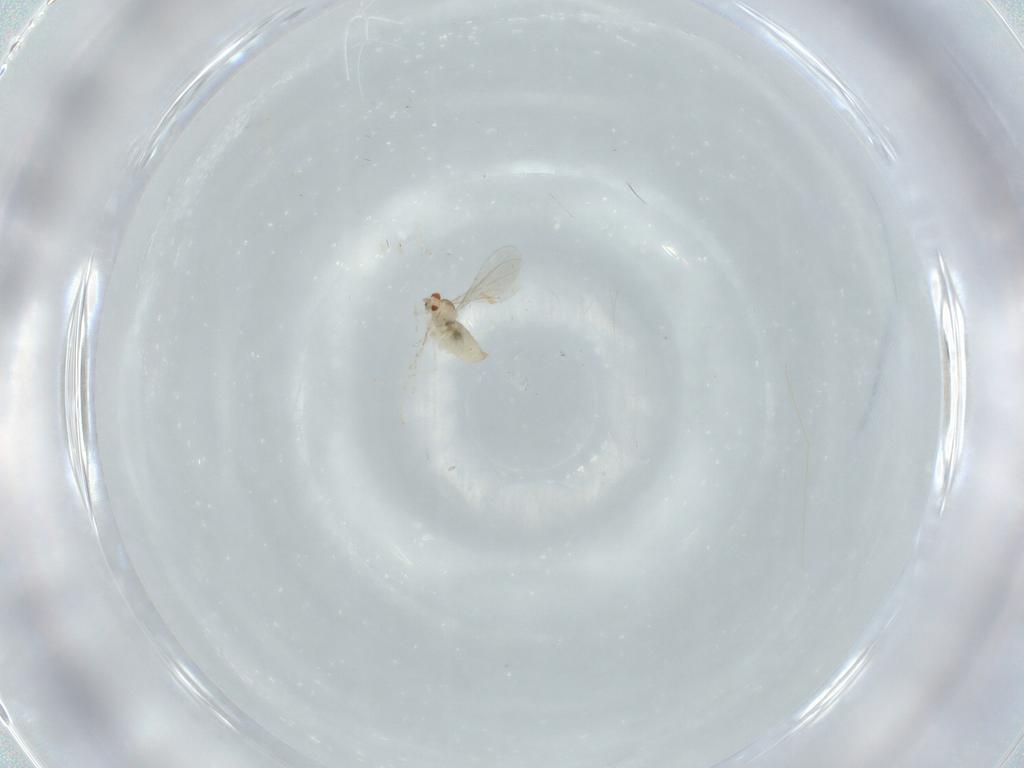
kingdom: Animalia
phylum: Arthropoda
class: Insecta
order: Diptera
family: Cecidomyiidae
